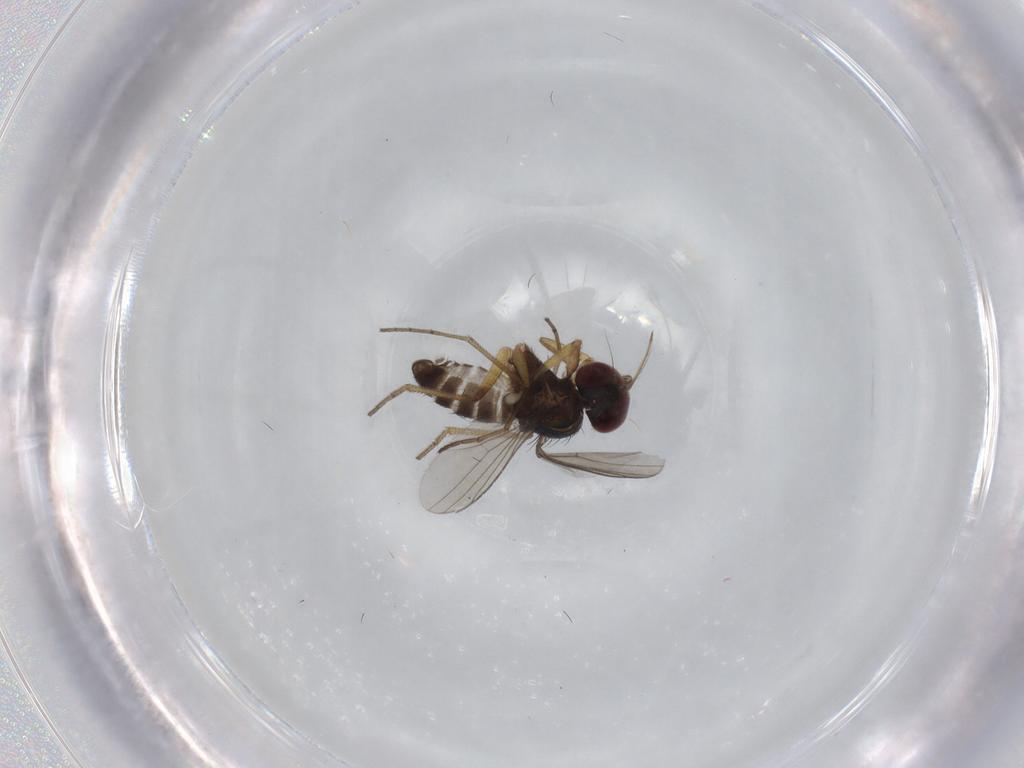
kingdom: Animalia
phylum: Arthropoda
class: Insecta
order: Diptera
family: Dolichopodidae
